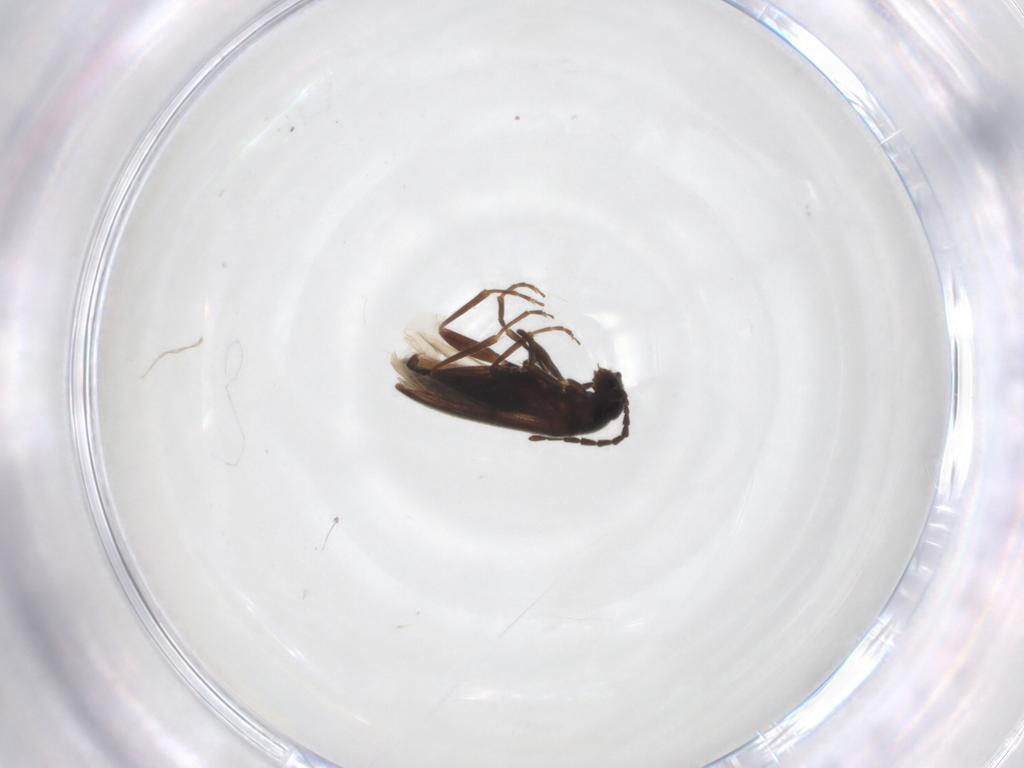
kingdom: Animalia
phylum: Arthropoda
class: Insecta
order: Coleoptera
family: Scraptiidae
